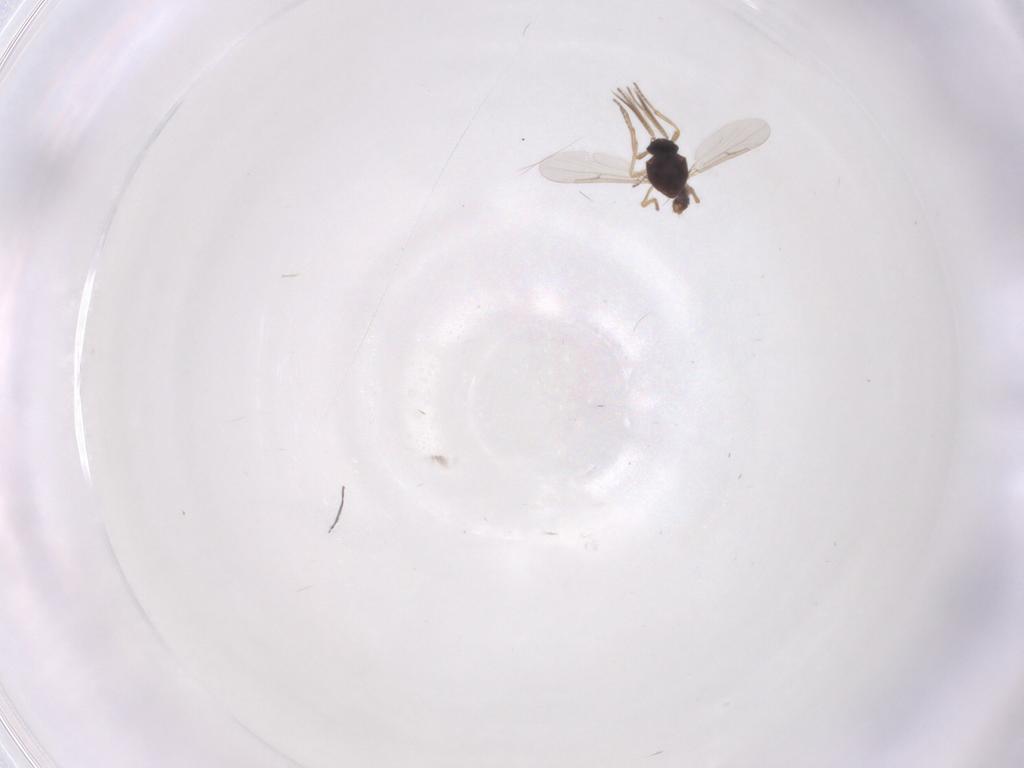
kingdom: Animalia
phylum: Arthropoda
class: Insecta
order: Diptera
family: Ceratopogonidae
